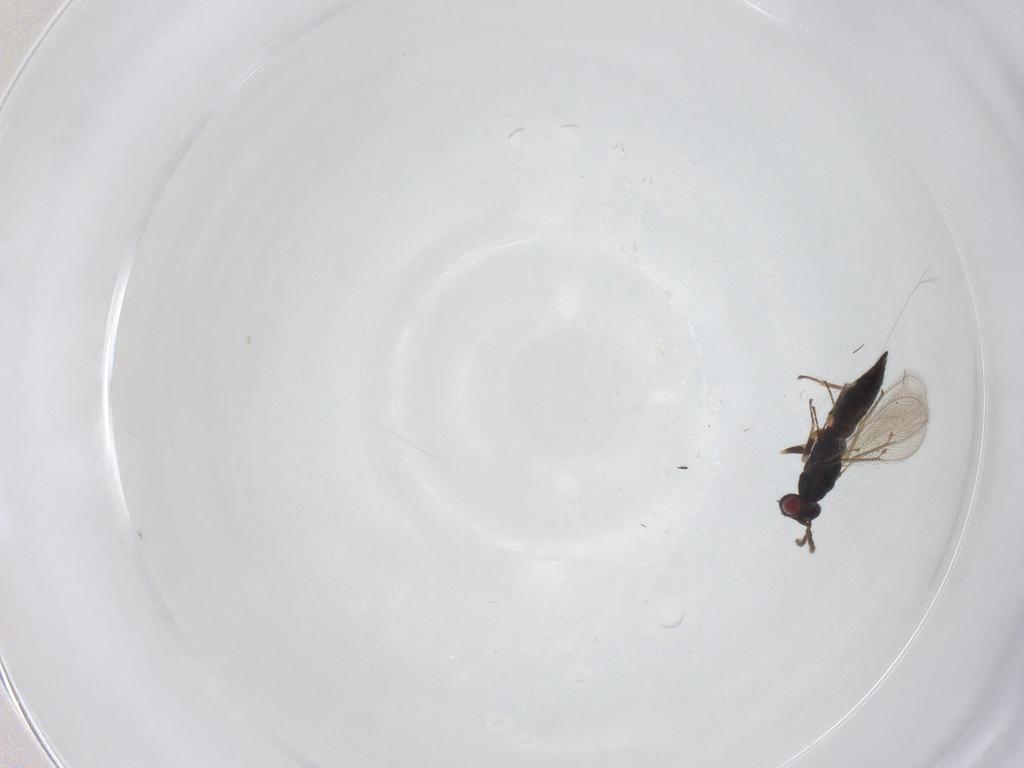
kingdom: Animalia
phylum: Arthropoda
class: Insecta
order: Hymenoptera
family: Eulophidae
